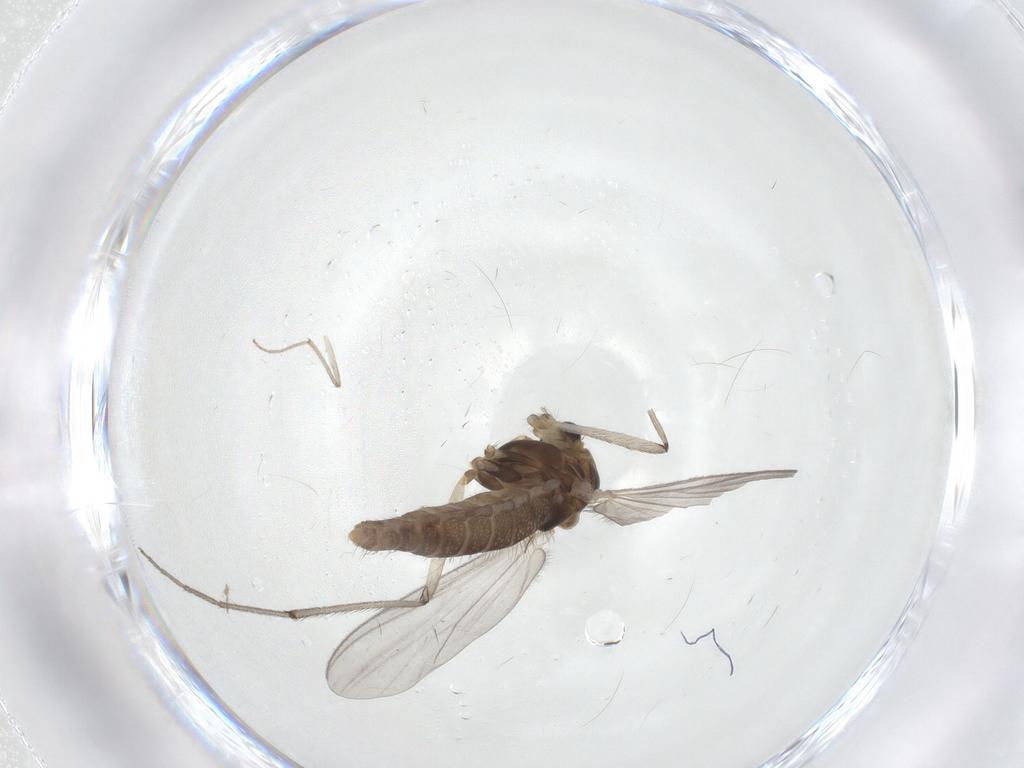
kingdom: Animalia
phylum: Arthropoda
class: Insecta
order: Diptera
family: Chironomidae
